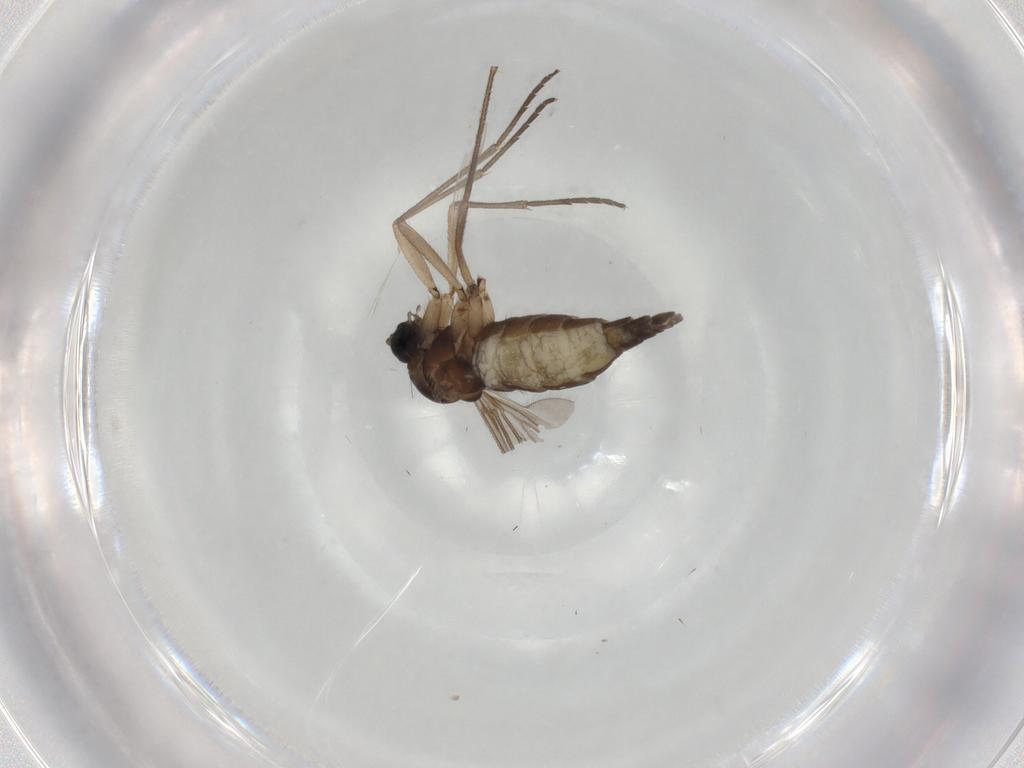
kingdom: Animalia
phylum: Arthropoda
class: Insecta
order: Diptera
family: Sciaridae
